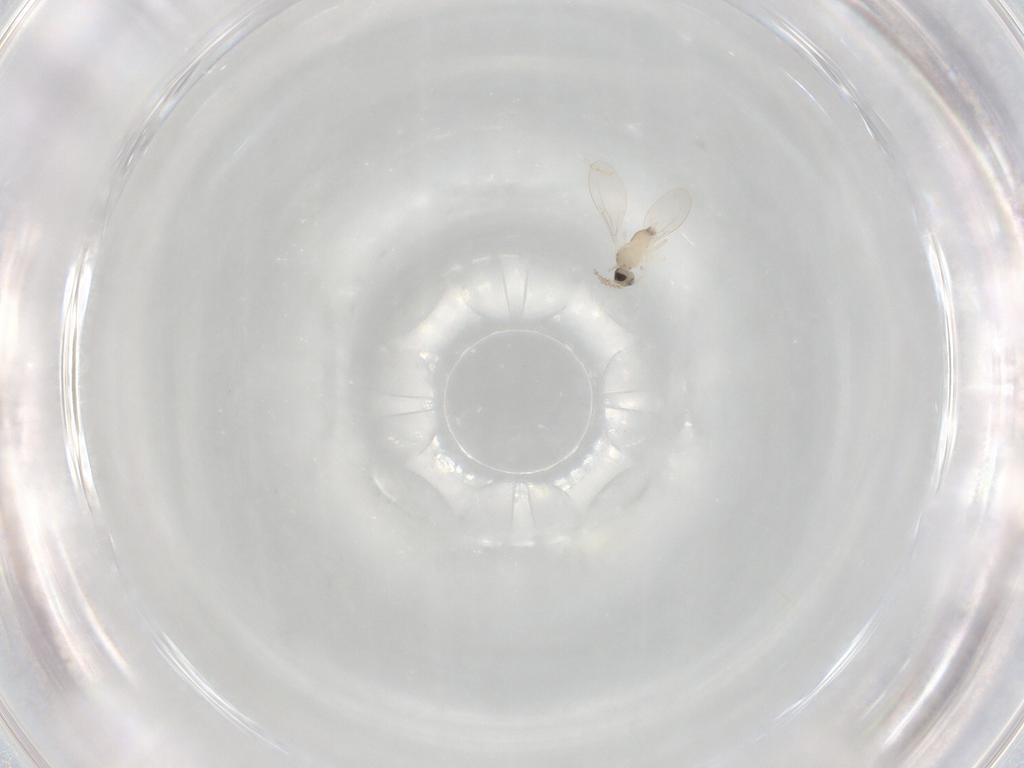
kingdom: Animalia
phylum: Arthropoda
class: Insecta
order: Diptera
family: Cecidomyiidae
